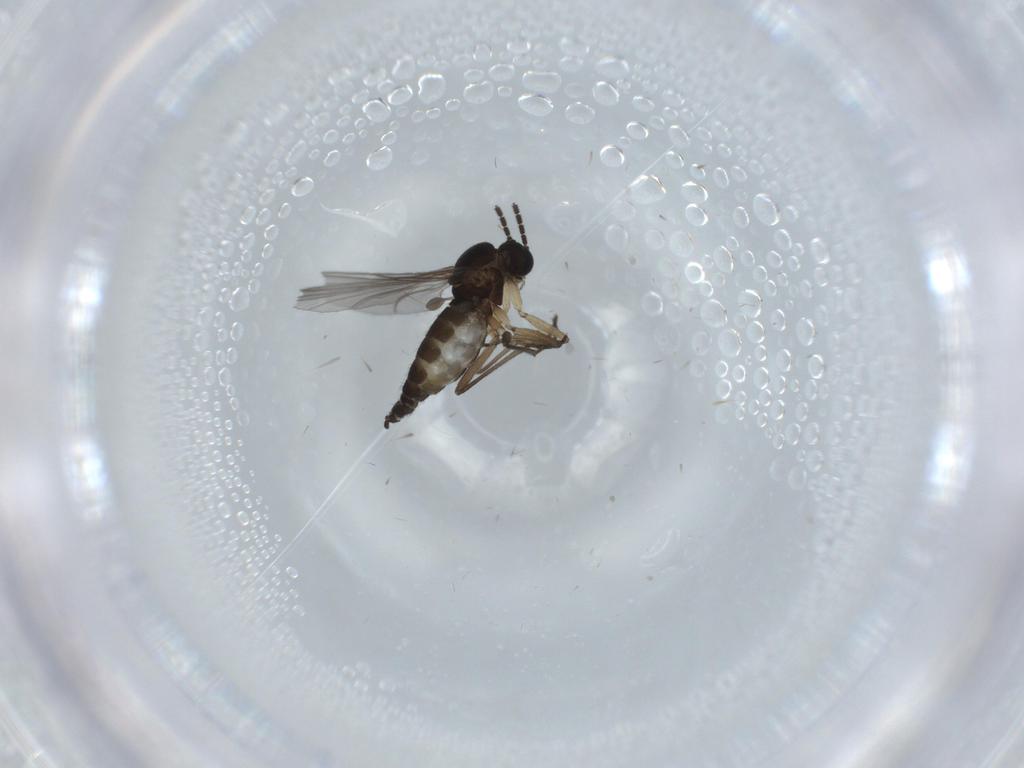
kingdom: Animalia
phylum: Arthropoda
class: Insecta
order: Diptera
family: Sciaridae
